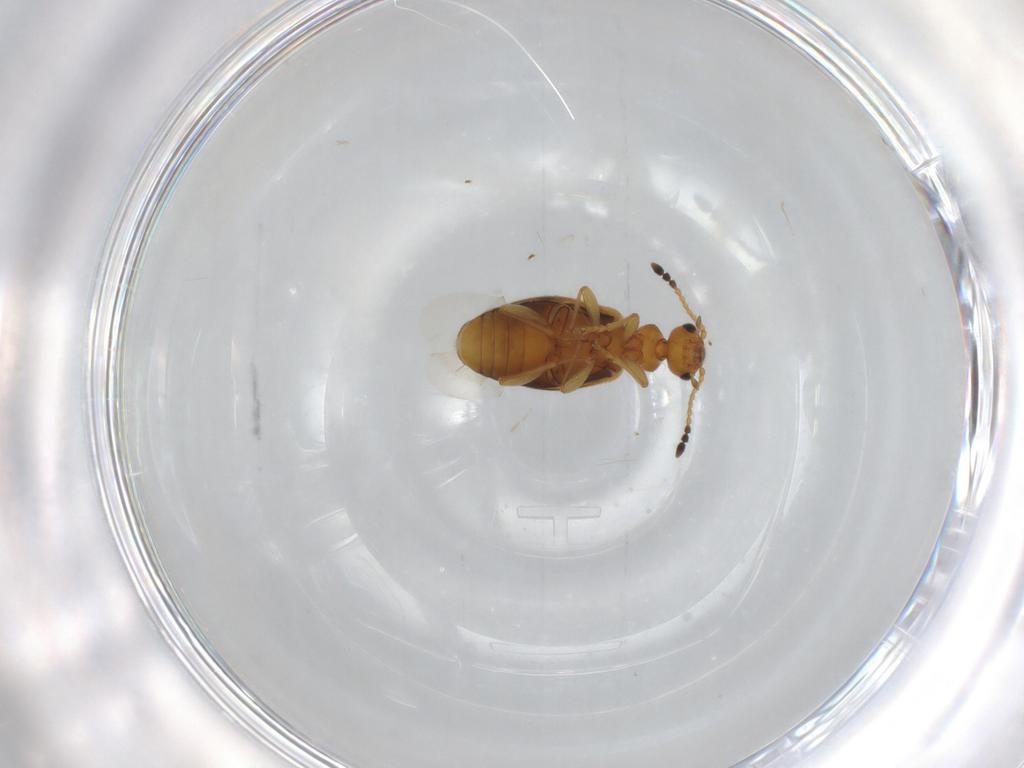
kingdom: Animalia
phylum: Arthropoda
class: Insecta
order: Coleoptera
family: Anthicidae
